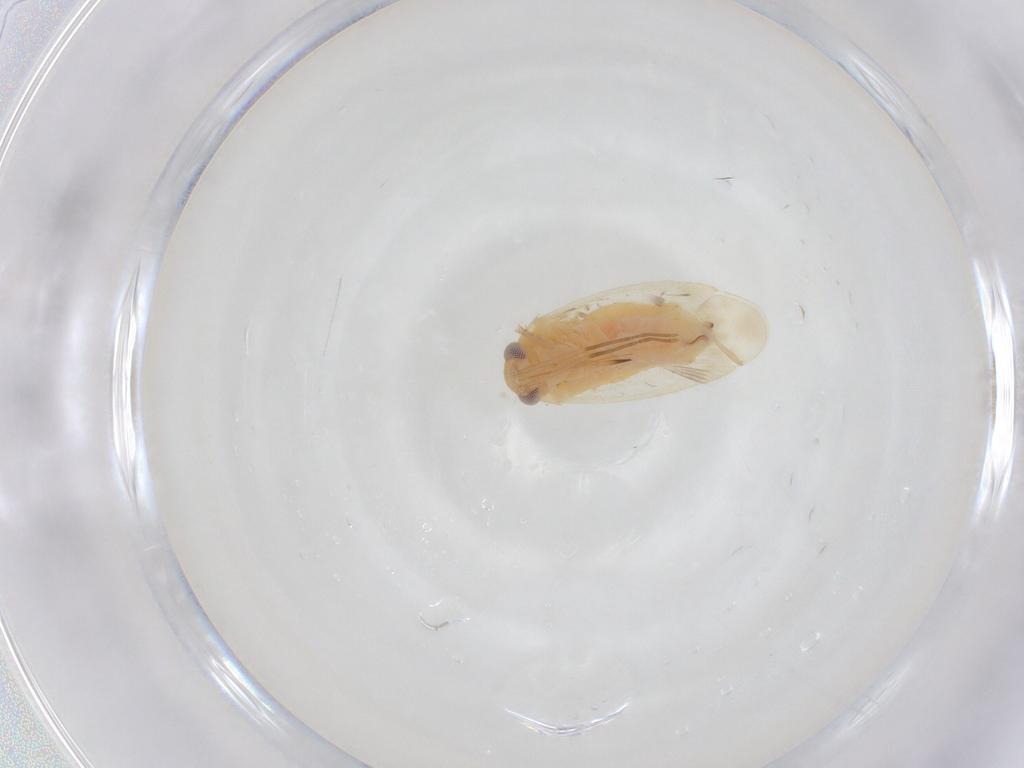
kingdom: Animalia
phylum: Arthropoda
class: Insecta
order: Hemiptera
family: Miridae
